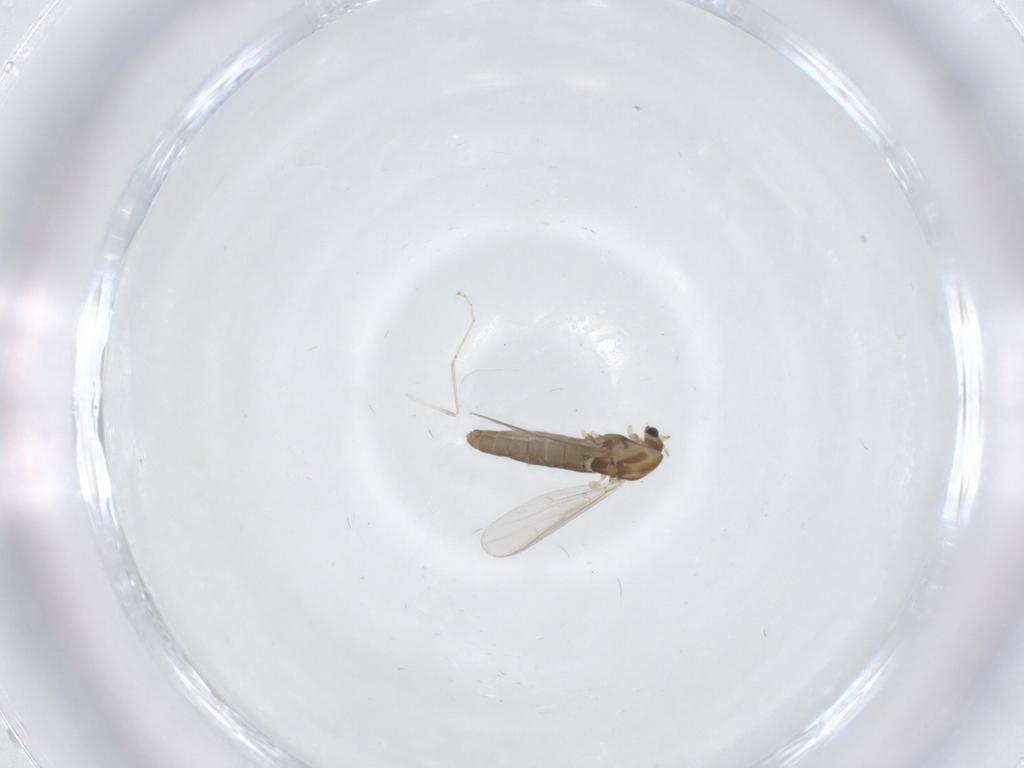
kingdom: Animalia
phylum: Arthropoda
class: Insecta
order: Diptera
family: Chironomidae
